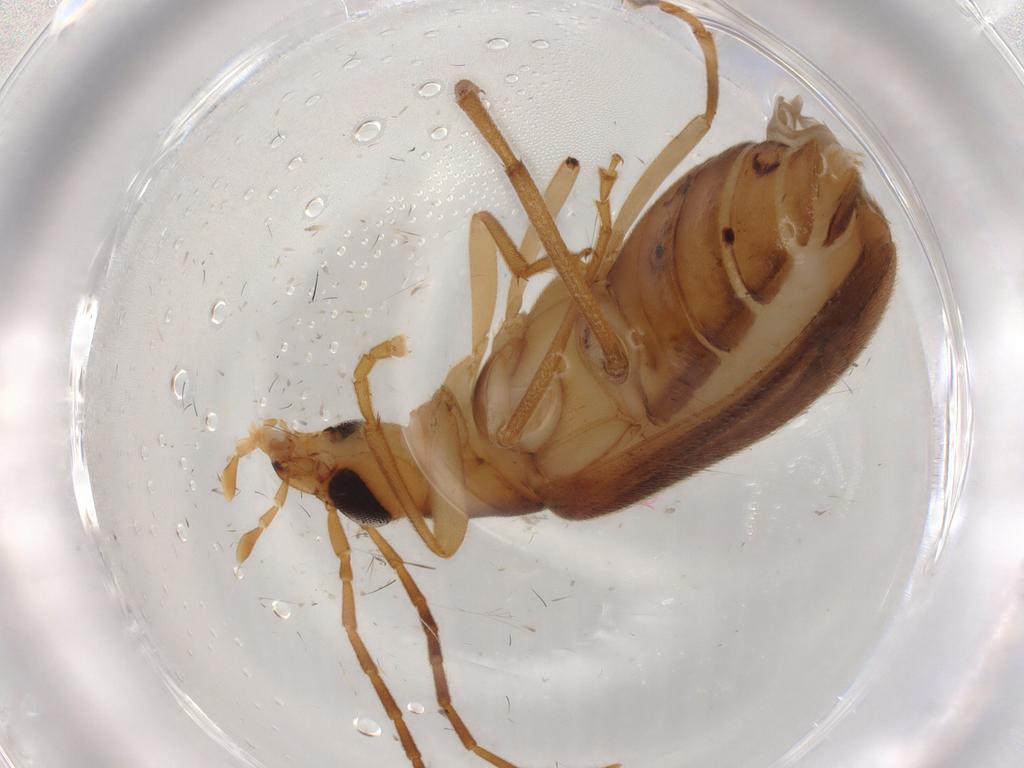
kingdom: Animalia
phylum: Arthropoda
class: Insecta
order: Coleoptera
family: Oedemeridae
